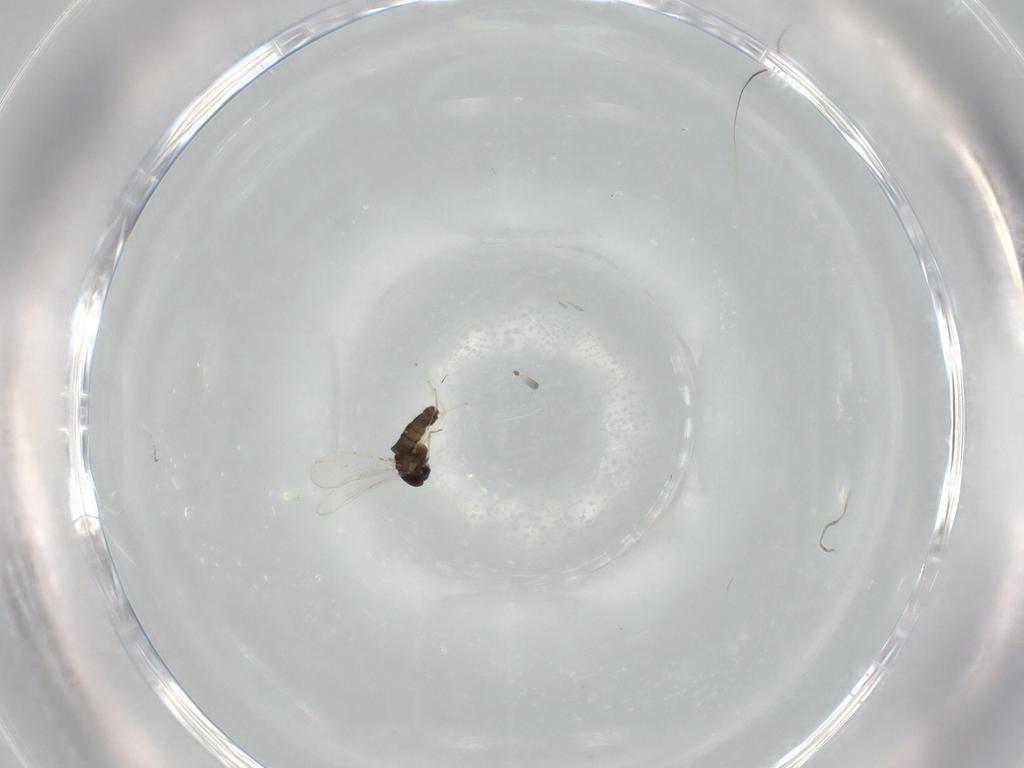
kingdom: Animalia
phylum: Arthropoda
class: Insecta
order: Diptera
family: Chironomidae
